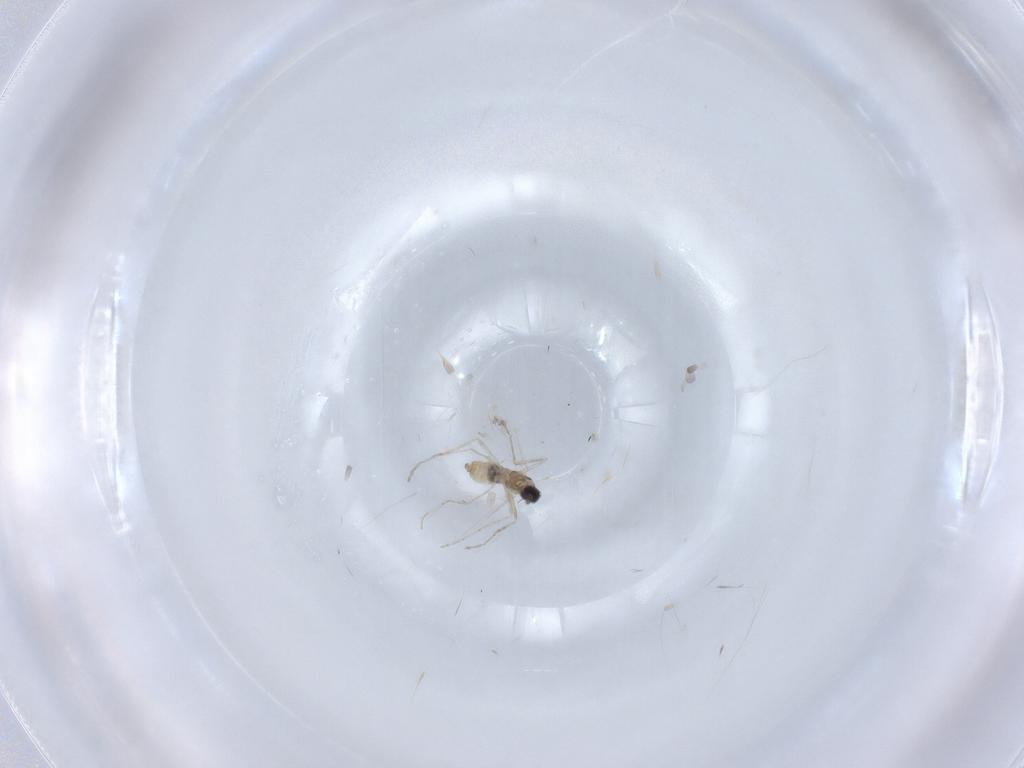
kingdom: Animalia
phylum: Arthropoda
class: Insecta
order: Diptera
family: Cecidomyiidae
